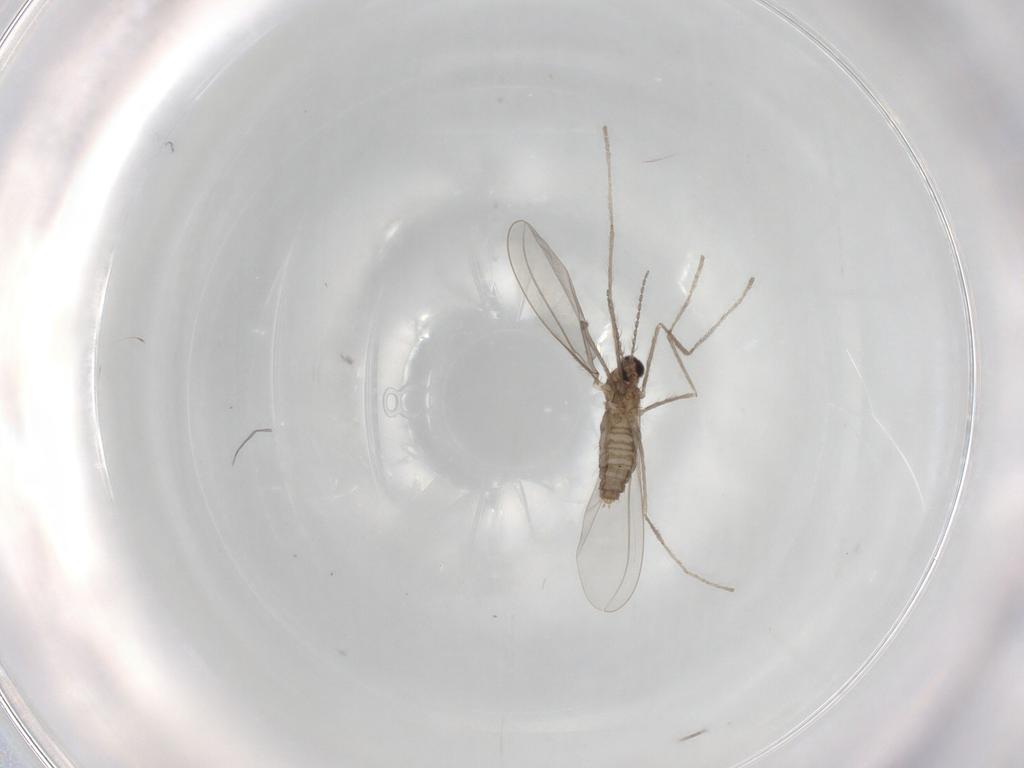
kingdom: Animalia
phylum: Arthropoda
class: Insecta
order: Diptera
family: Cecidomyiidae
